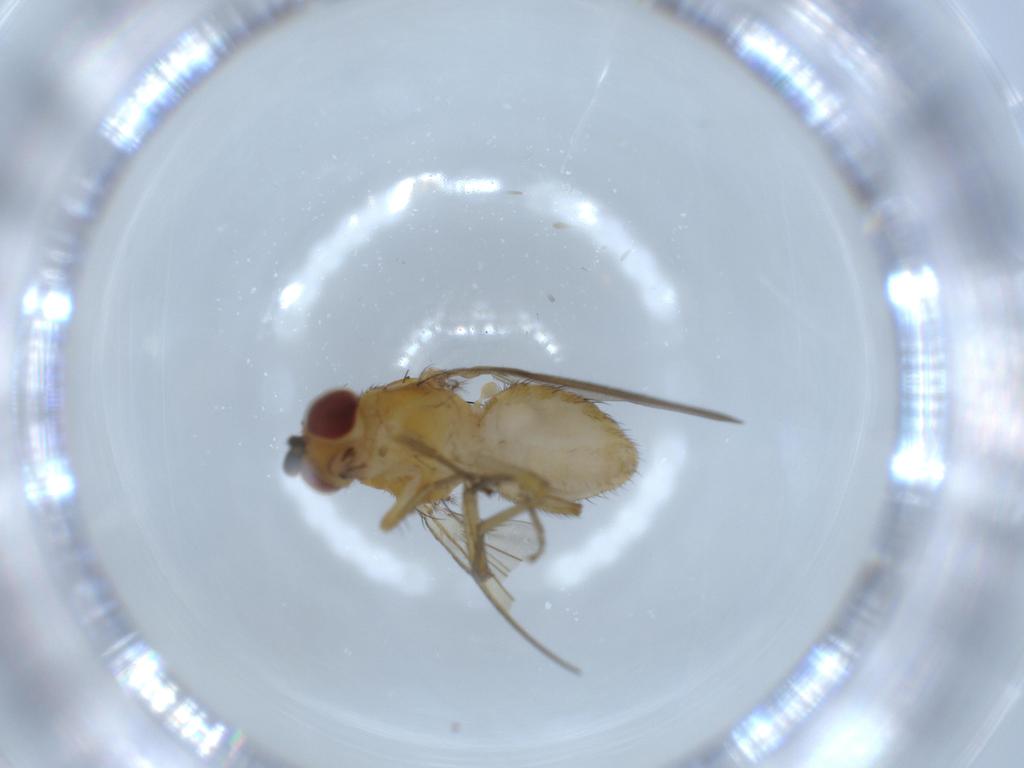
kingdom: Animalia
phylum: Arthropoda
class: Insecta
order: Diptera
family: Lauxaniidae
